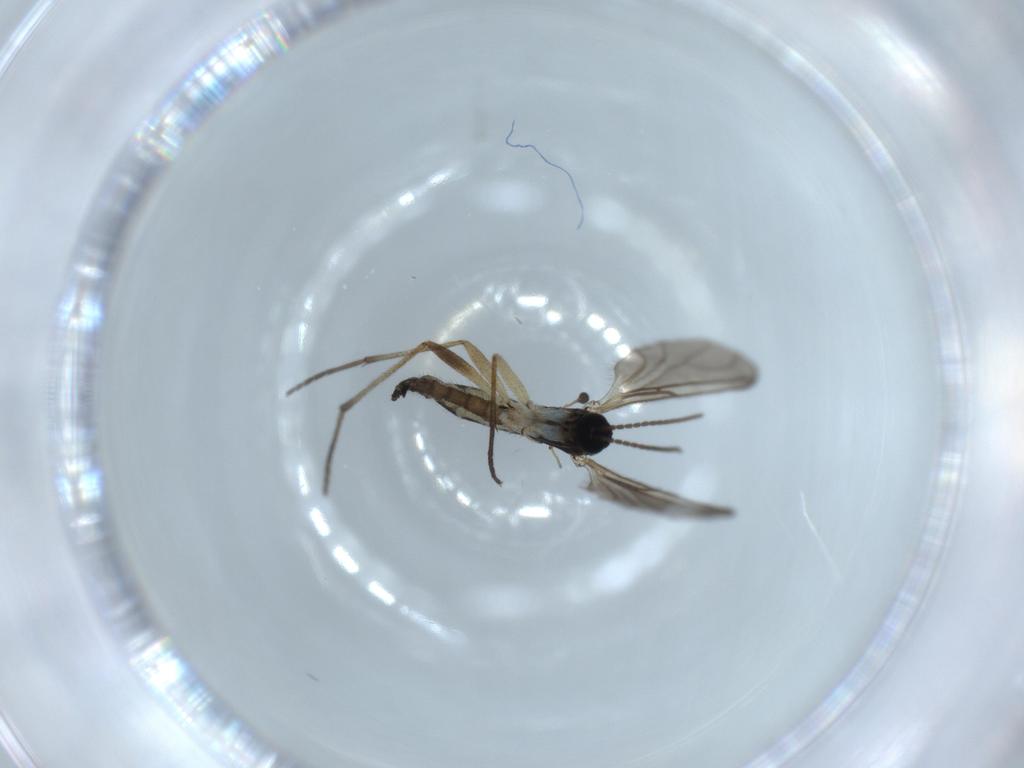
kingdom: Animalia
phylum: Arthropoda
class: Insecta
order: Diptera
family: Sciaridae
